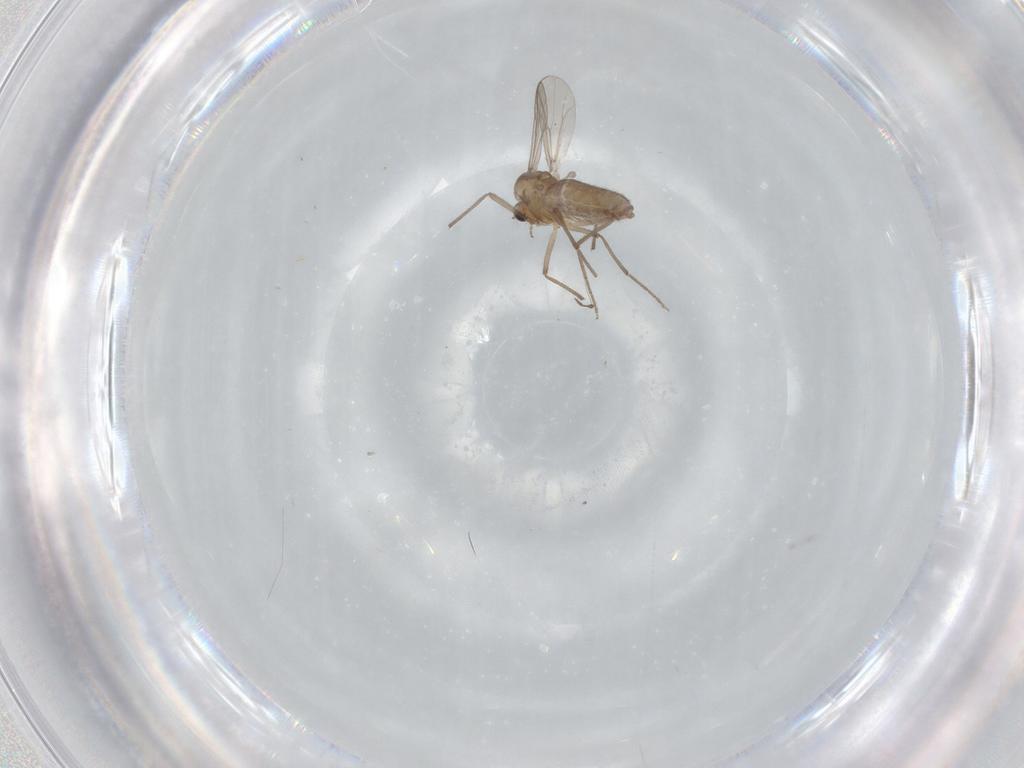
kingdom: Animalia
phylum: Arthropoda
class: Insecta
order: Diptera
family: Chironomidae
